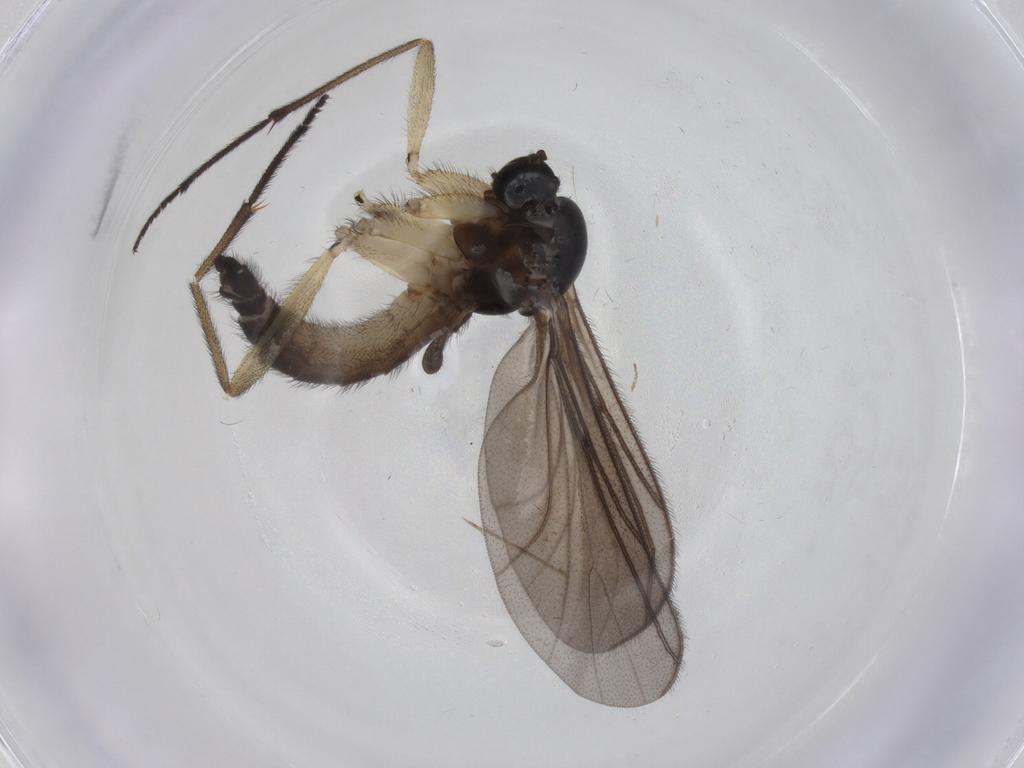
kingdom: Animalia
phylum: Arthropoda
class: Insecta
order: Diptera
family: Sciaridae
